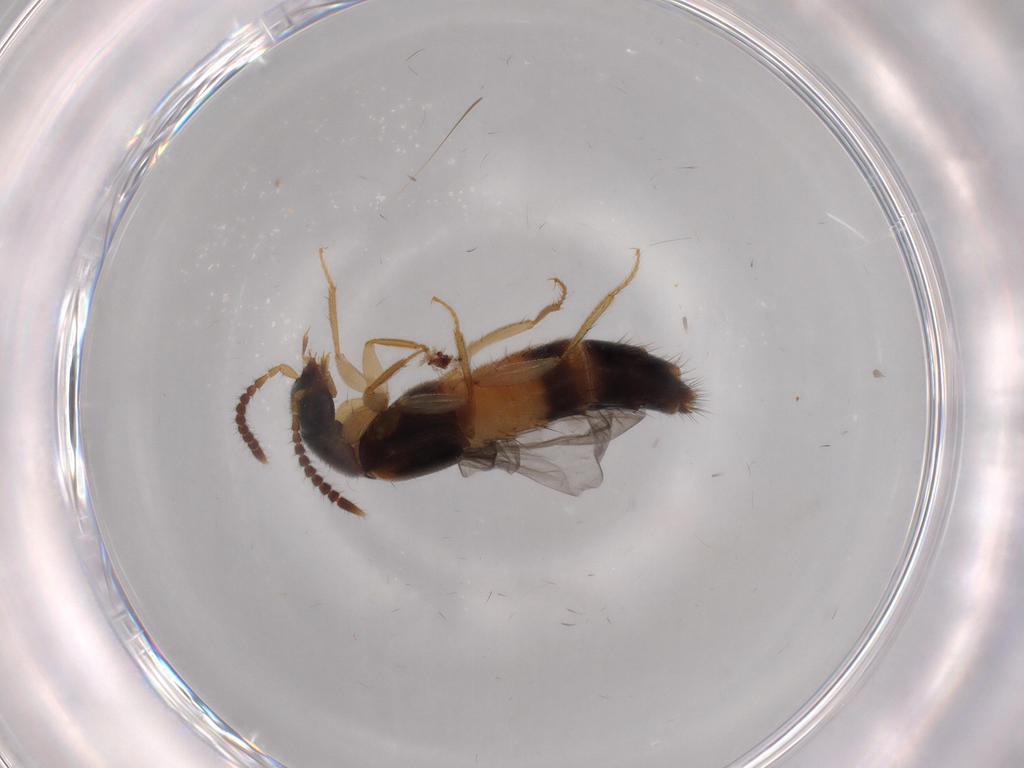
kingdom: Animalia
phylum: Arthropoda
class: Insecta
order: Coleoptera
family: Staphylinidae
